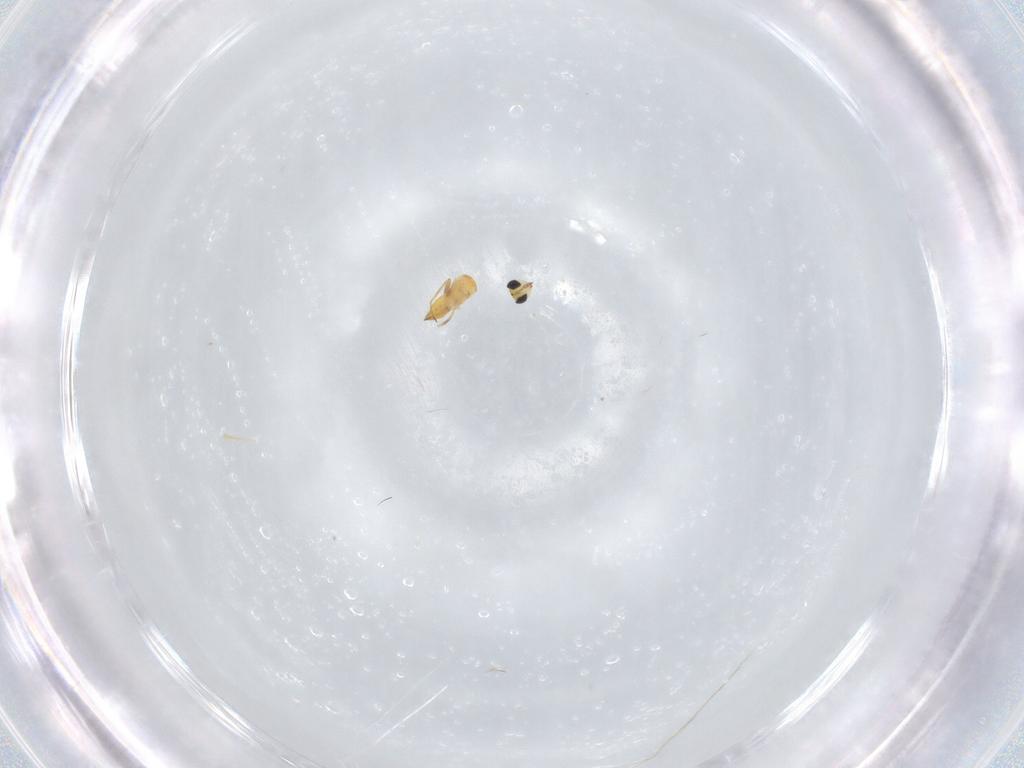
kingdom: Animalia
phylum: Arthropoda
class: Insecta
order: Hymenoptera
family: Trichogrammatidae
